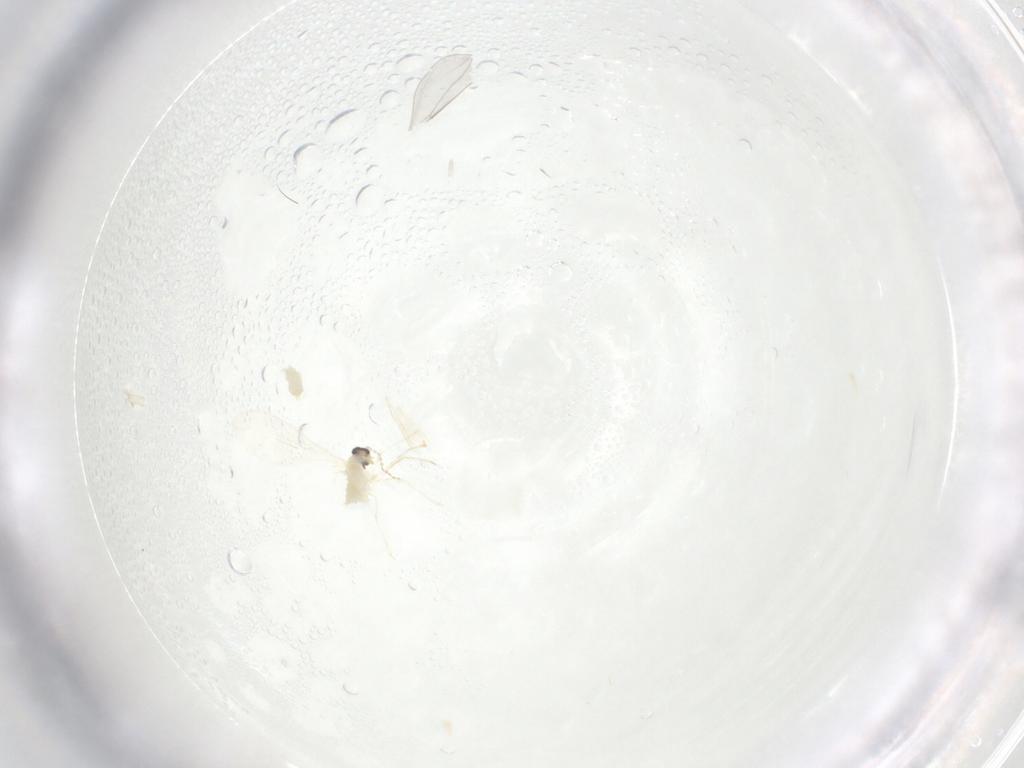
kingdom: Animalia
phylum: Arthropoda
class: Insecta
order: Diptera
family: Cecidomyiidae
